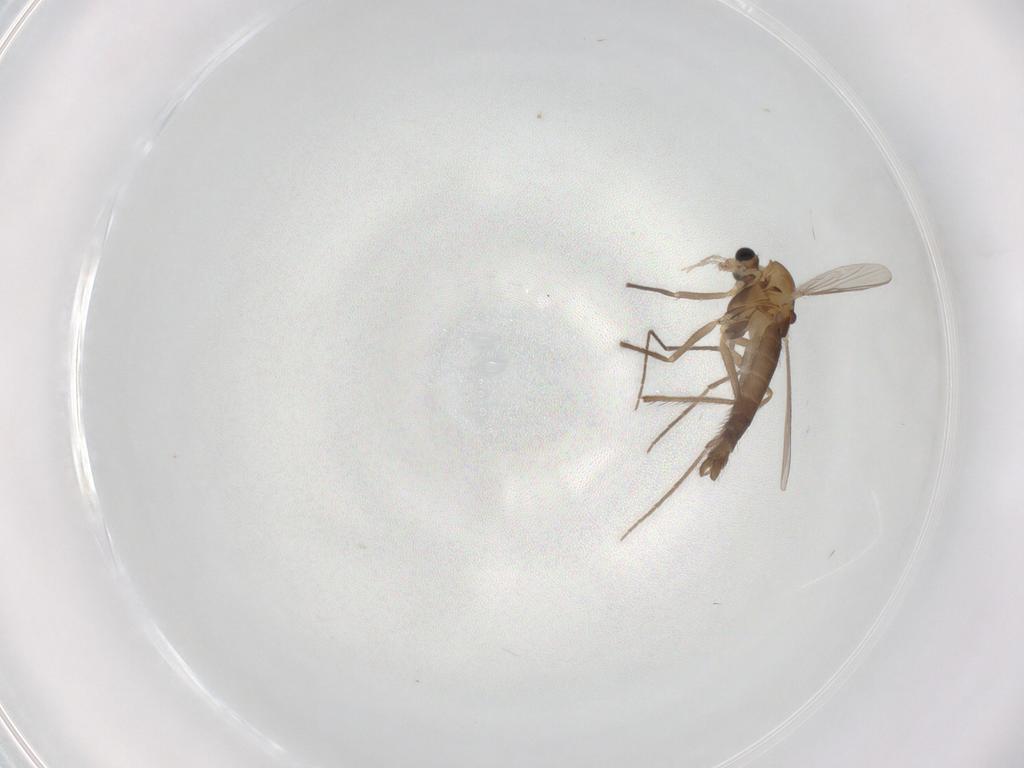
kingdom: Animalia
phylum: Arthropoda
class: Insecta
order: Diptera
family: Chironomidae
